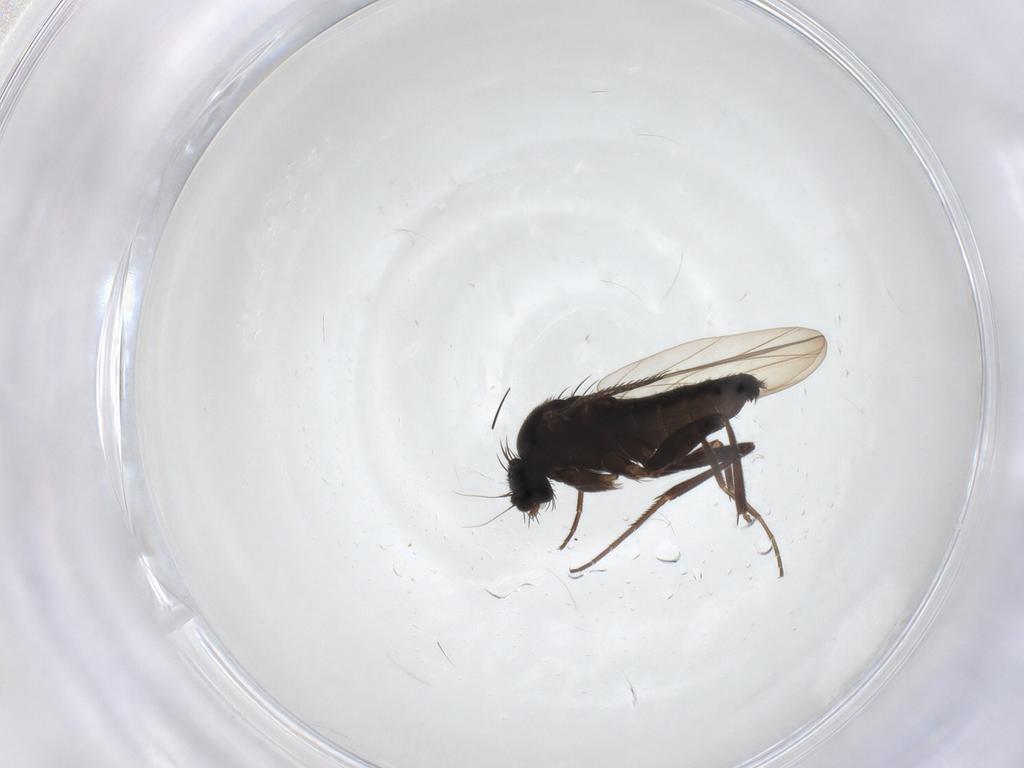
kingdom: Animalia
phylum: Arthropoda
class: Insecta
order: Diptera
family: Phoridae
